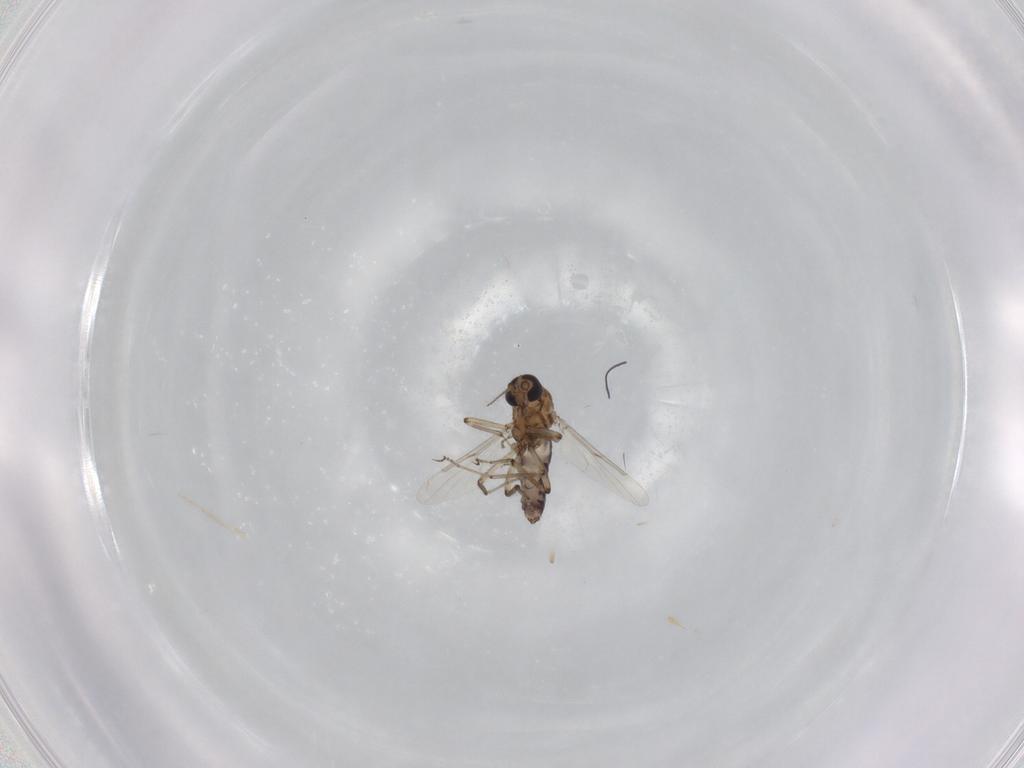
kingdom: Animalia
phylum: Arthropoda
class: Insecta
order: Diptera
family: Ceratopogonidae
